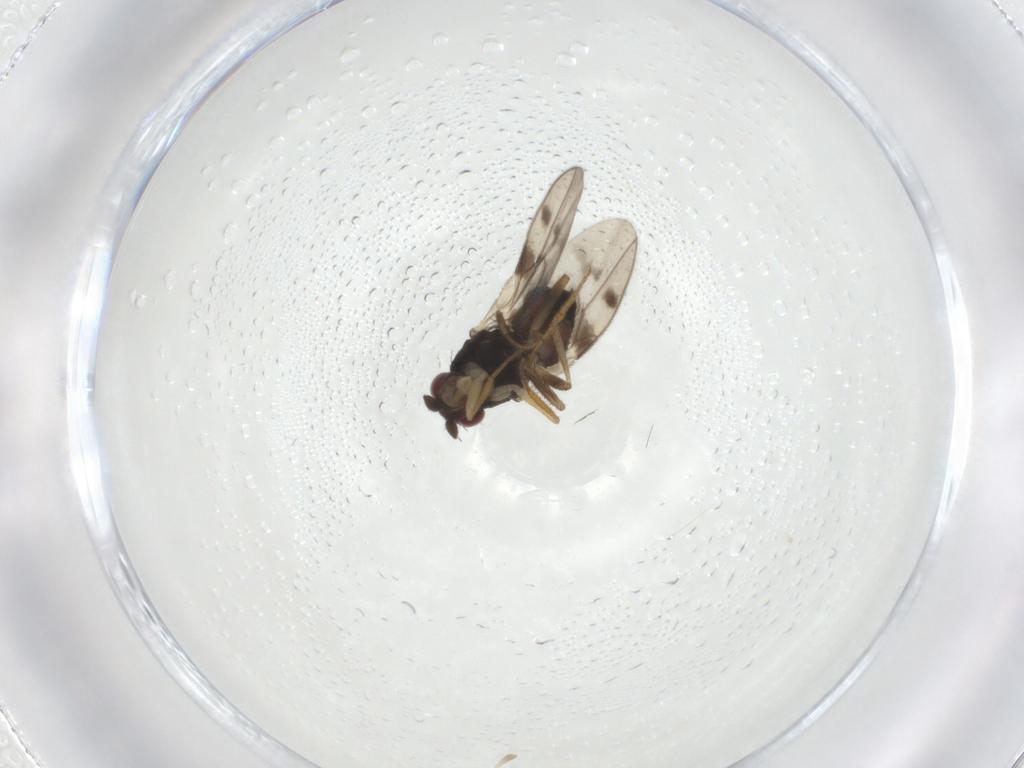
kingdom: Animalia
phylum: Arthropoda
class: Insecta
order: Diptera
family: Sphaeroceridae
